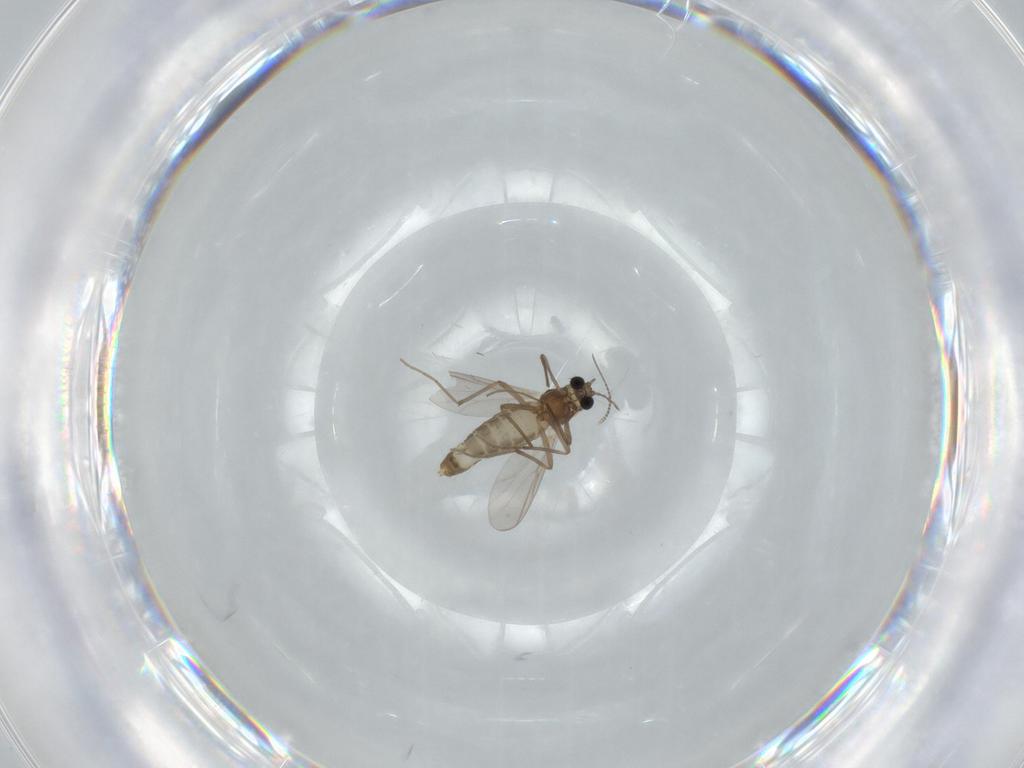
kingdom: Animalia
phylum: Arthropoda
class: Insecta
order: Diptera
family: Chironomidae
